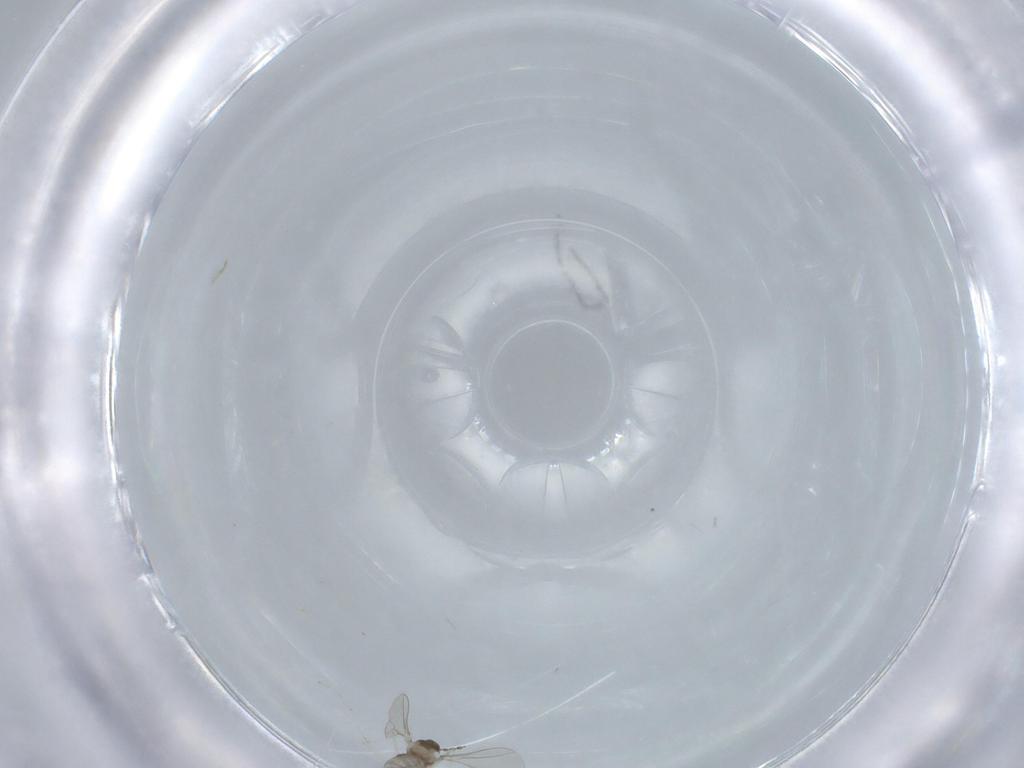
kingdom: Animalia
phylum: Arthropoda
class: Insecta
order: Diptera
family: Cecidomyiidae
